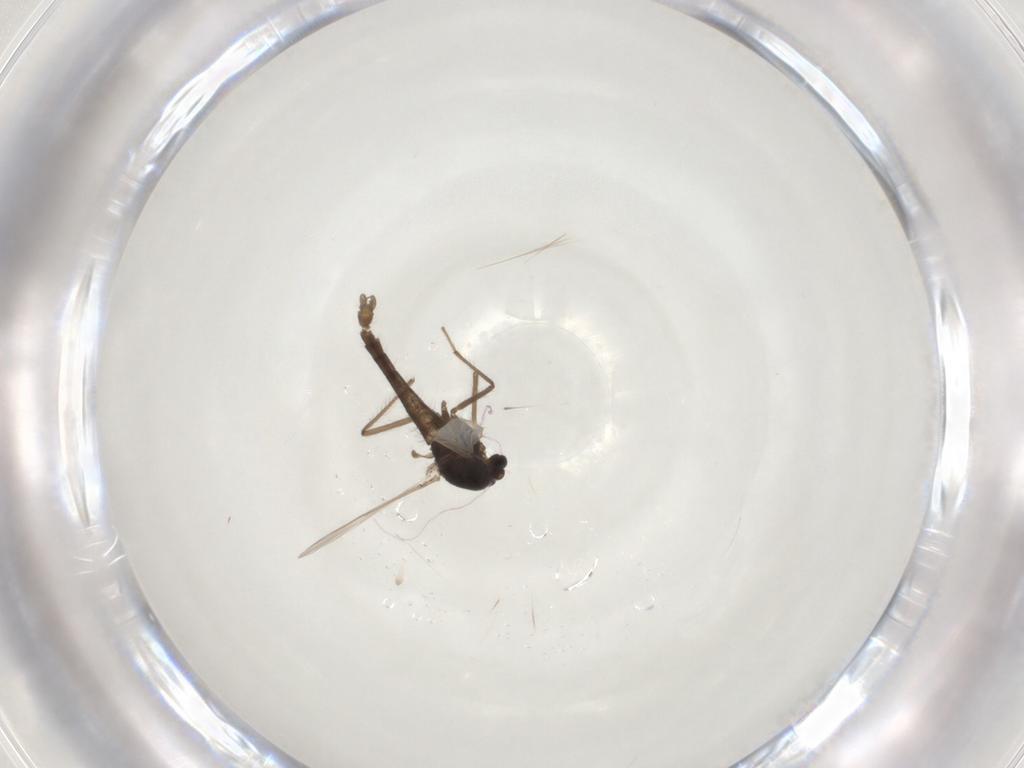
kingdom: Animalia
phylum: Arthropoda
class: Insecta
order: Diptera
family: Chironomidae
